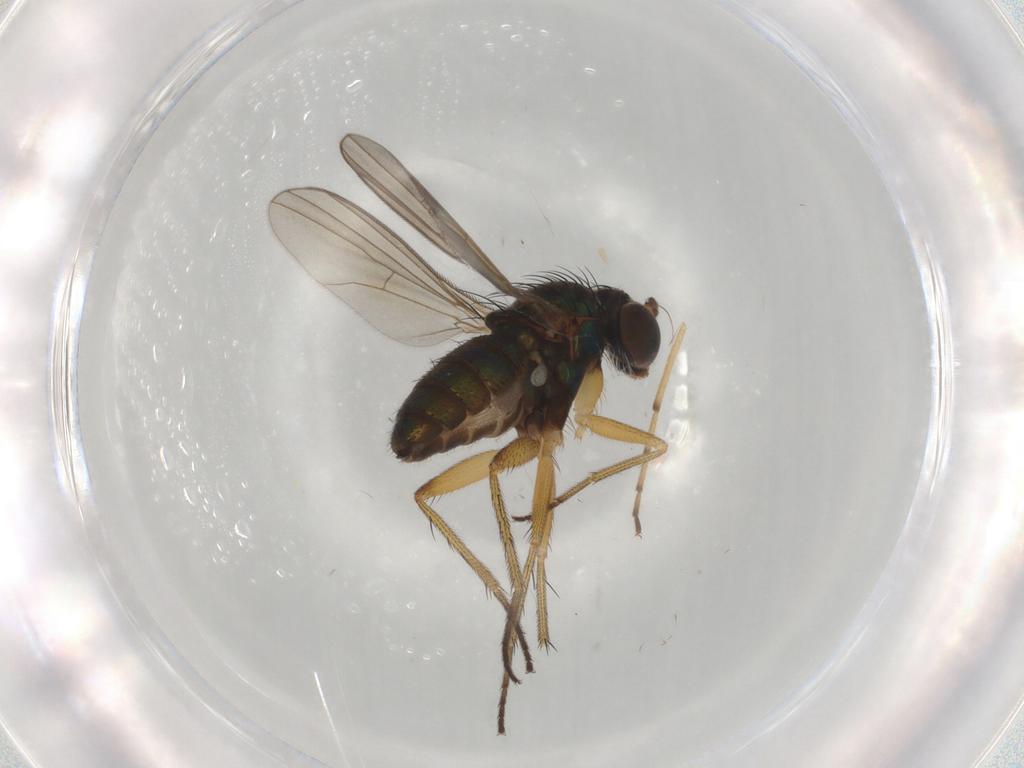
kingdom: Animalia
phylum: Arthropoda
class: Insecta
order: Diptera
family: Dolichopodidae
